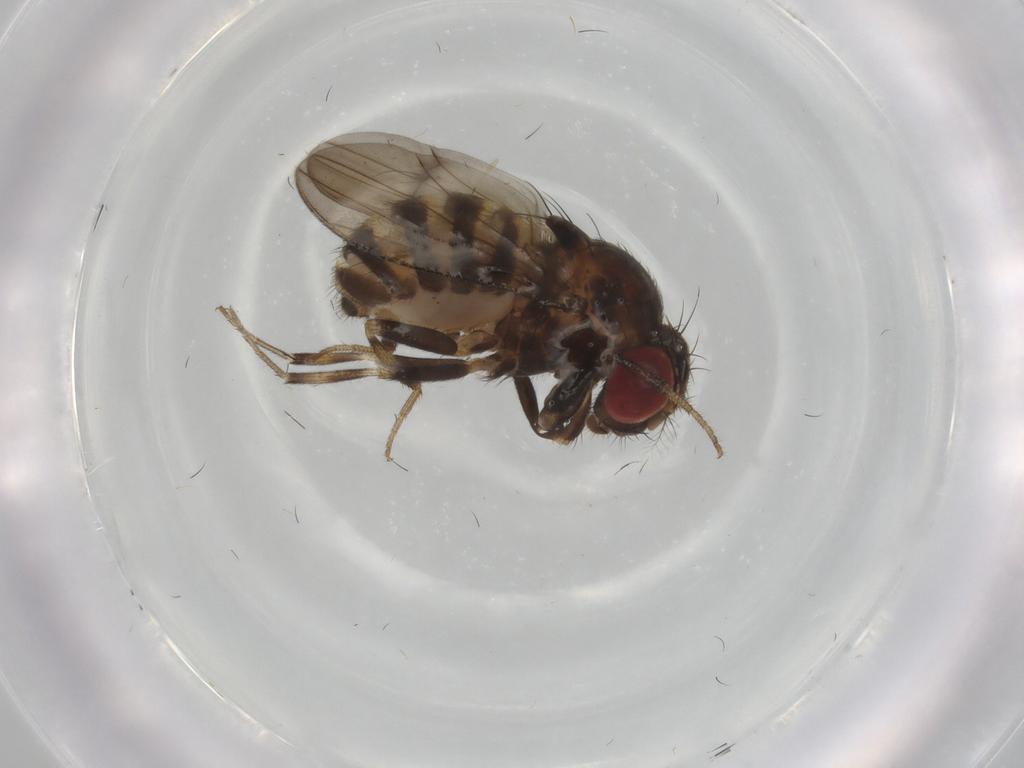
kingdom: Animalia
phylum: Arthropoda
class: Insecta
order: Diptera
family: Drosophilidae
